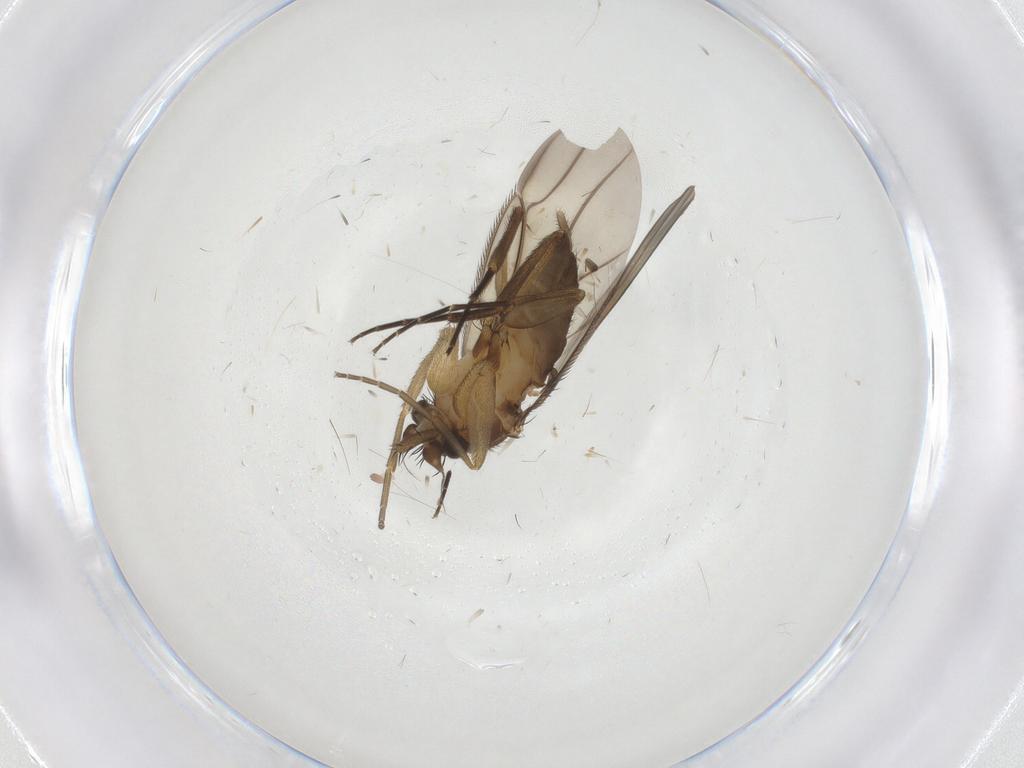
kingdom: Animalia
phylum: Arthropoda
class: Insecta
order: Diptera
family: Phoridae
